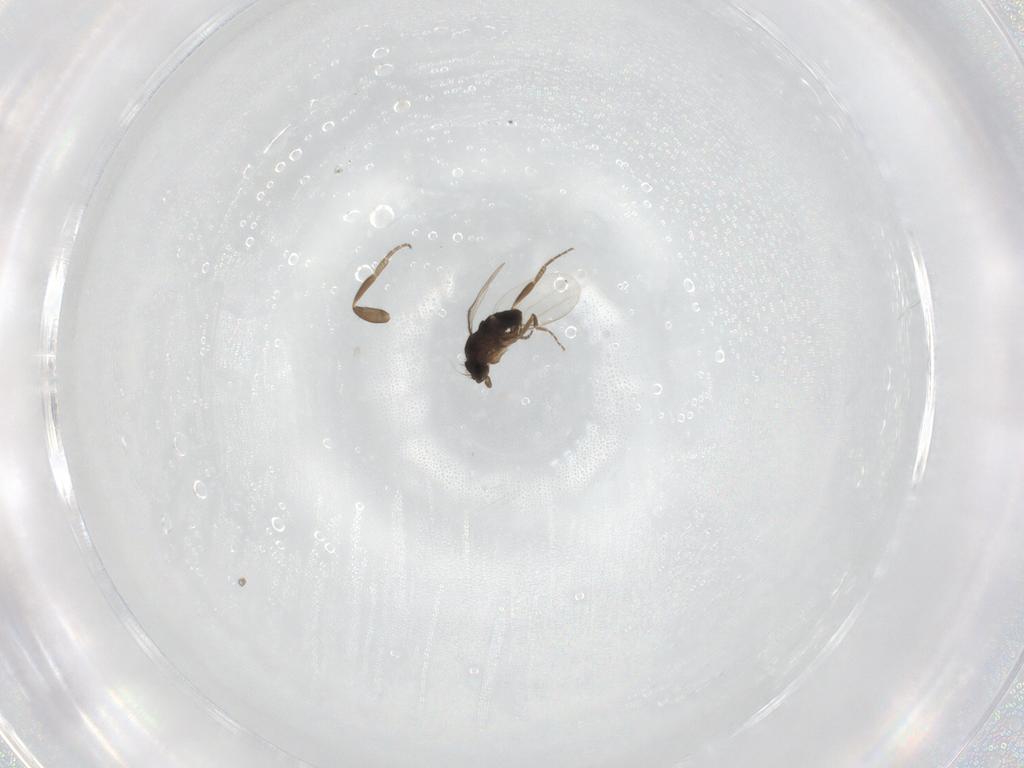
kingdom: Animalia
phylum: Arthropoda
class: Insecta
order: Diptera
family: Phoridae
